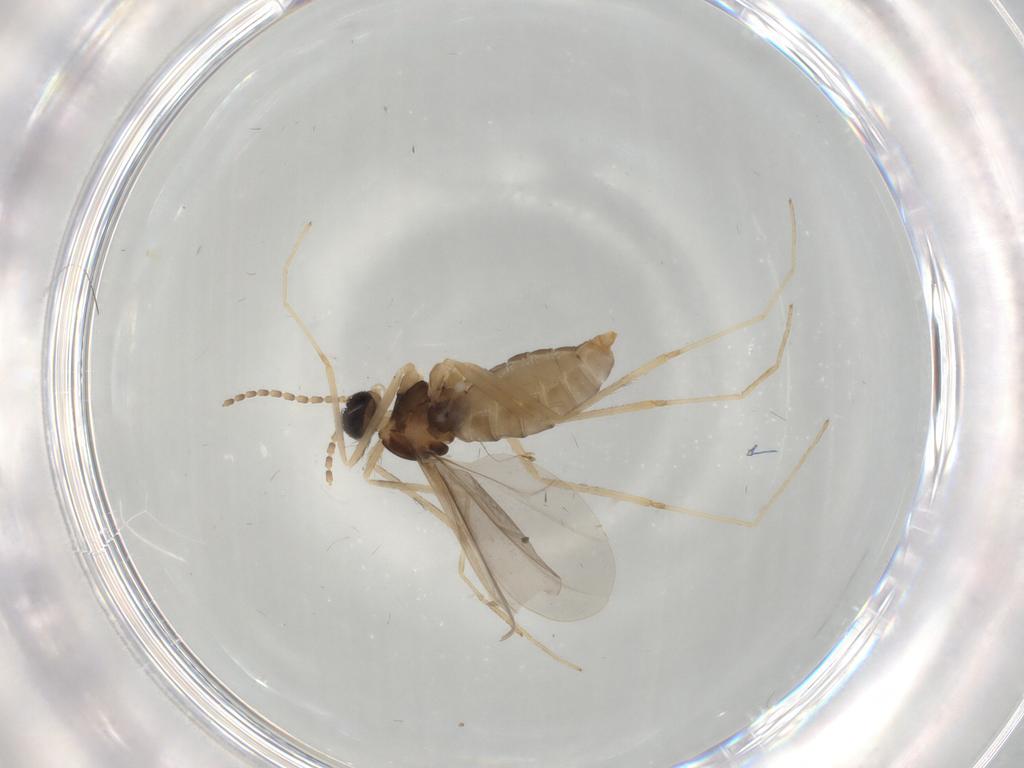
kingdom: Animalia
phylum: Arthropoda
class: Insecta
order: Diptera
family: Cecidomyiidae
